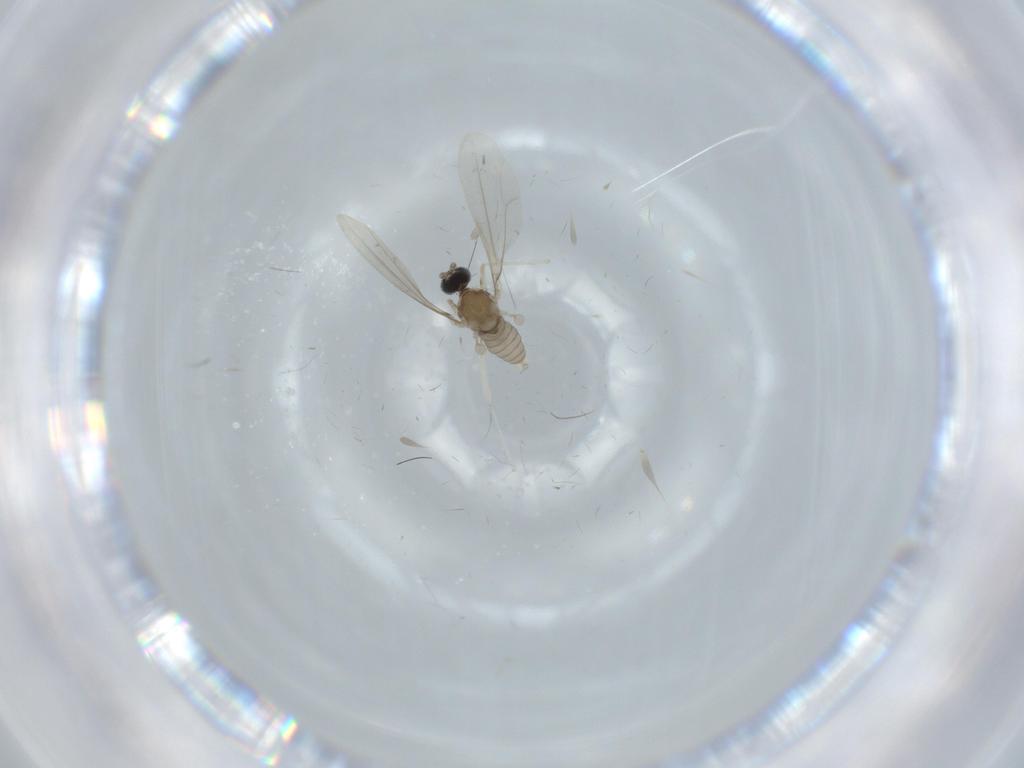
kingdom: Animalia
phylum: Arthropoda
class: Insecta
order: Diptera
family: Cecidomyiidae
